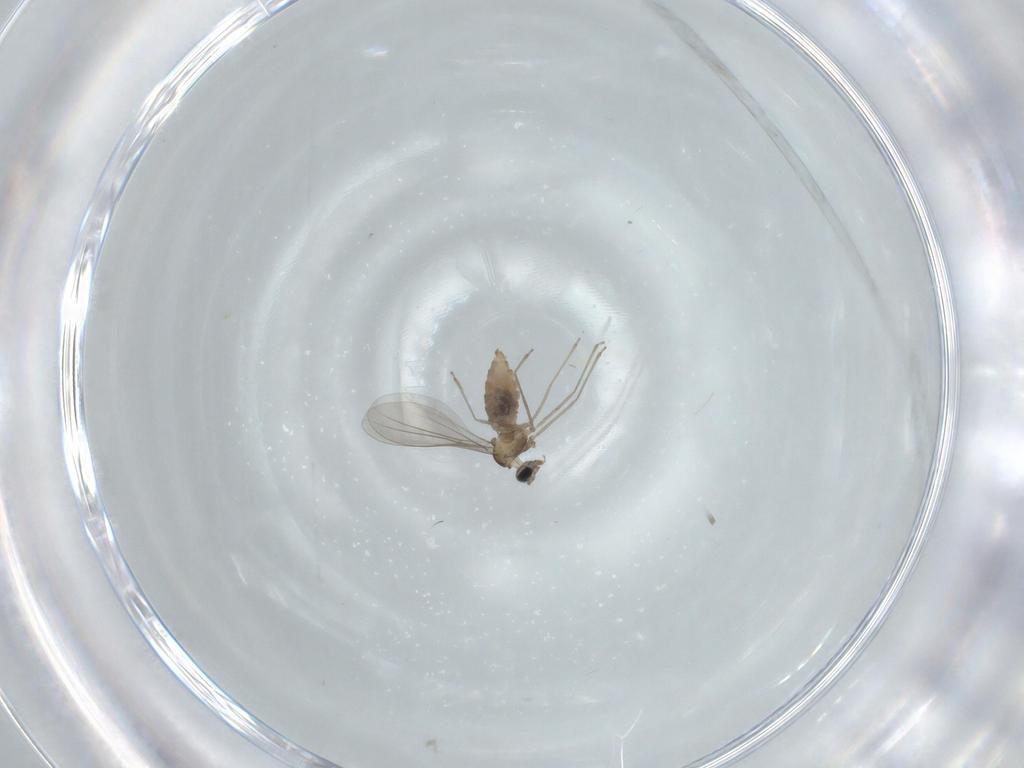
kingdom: Animalia
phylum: Arthropoda
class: Insecta
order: Diptera
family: Cecidomyiidae
